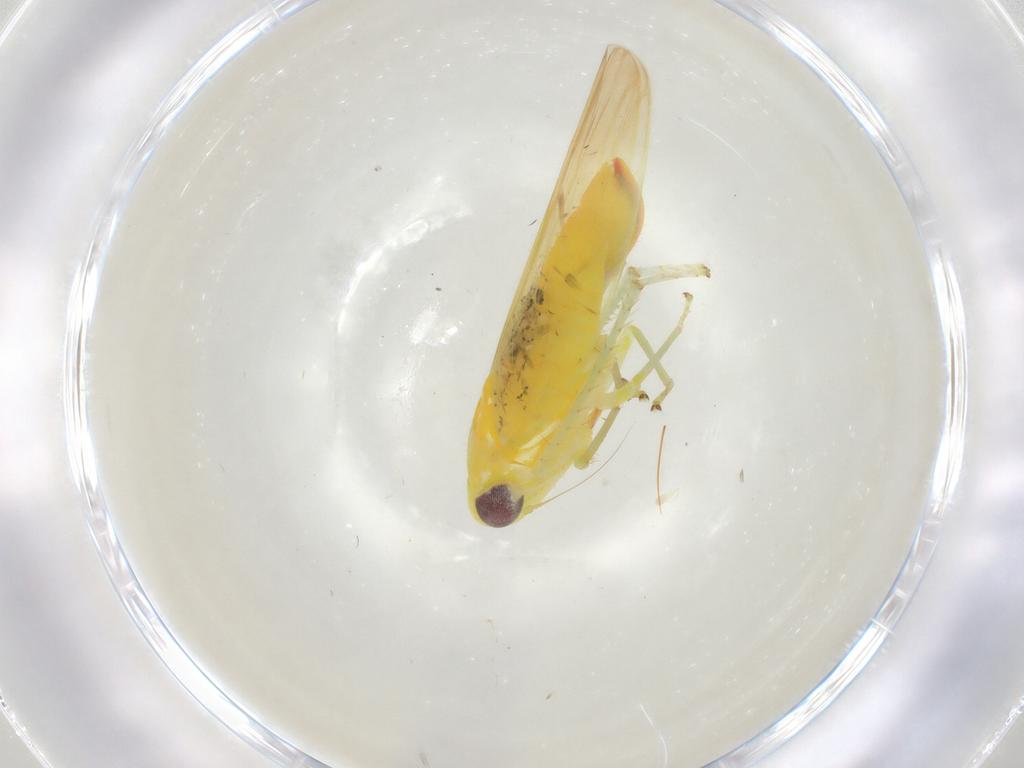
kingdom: Animalia
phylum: Arthropoda
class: Insecta
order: Hemiptera
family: Cicadellidae
